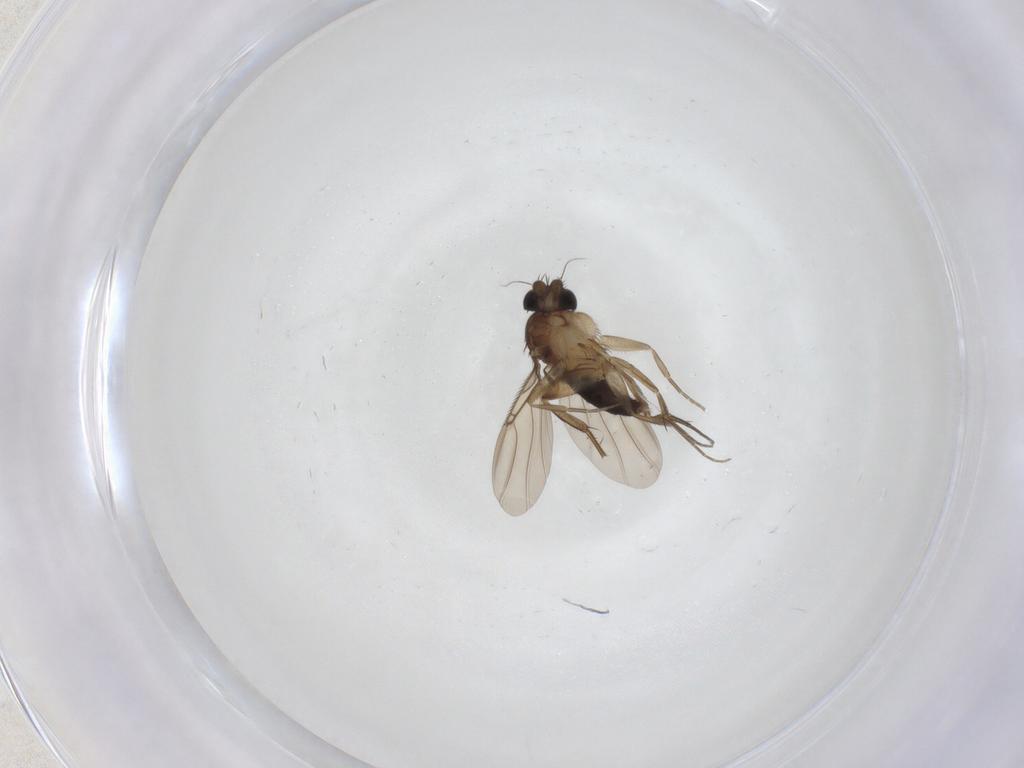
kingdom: Animalia
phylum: Arthropoda
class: Insecta
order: Diptera
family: Phoridae
